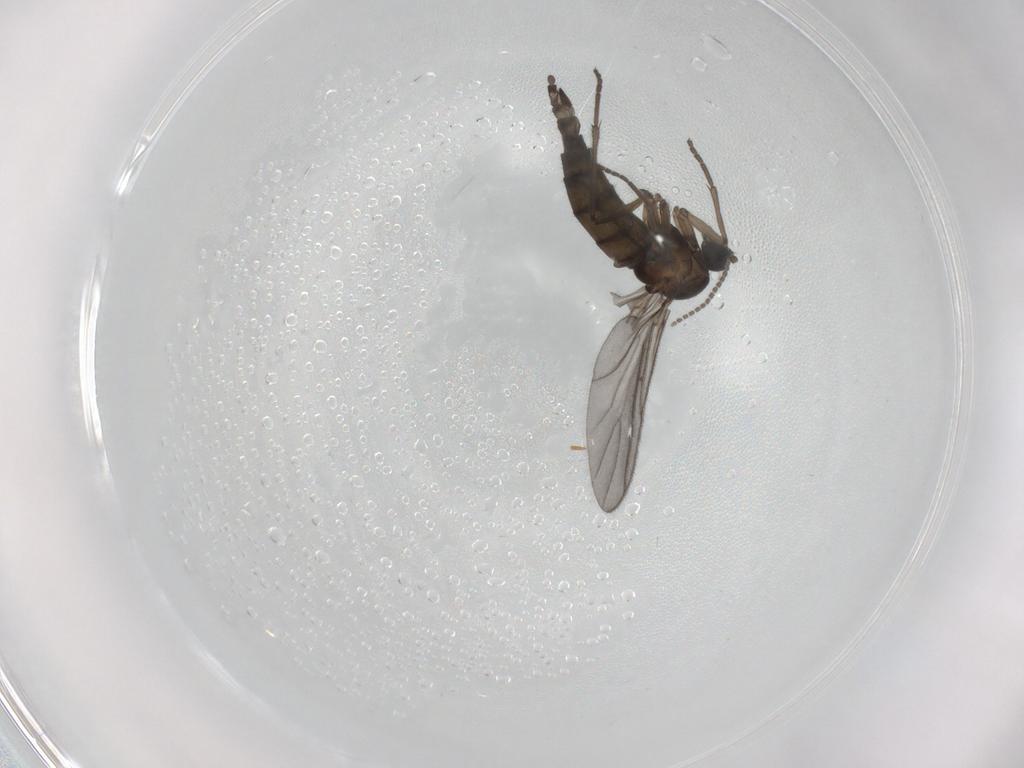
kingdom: Animalia
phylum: Arthropoda
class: Insecta
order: Diptera
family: Sciaridae
